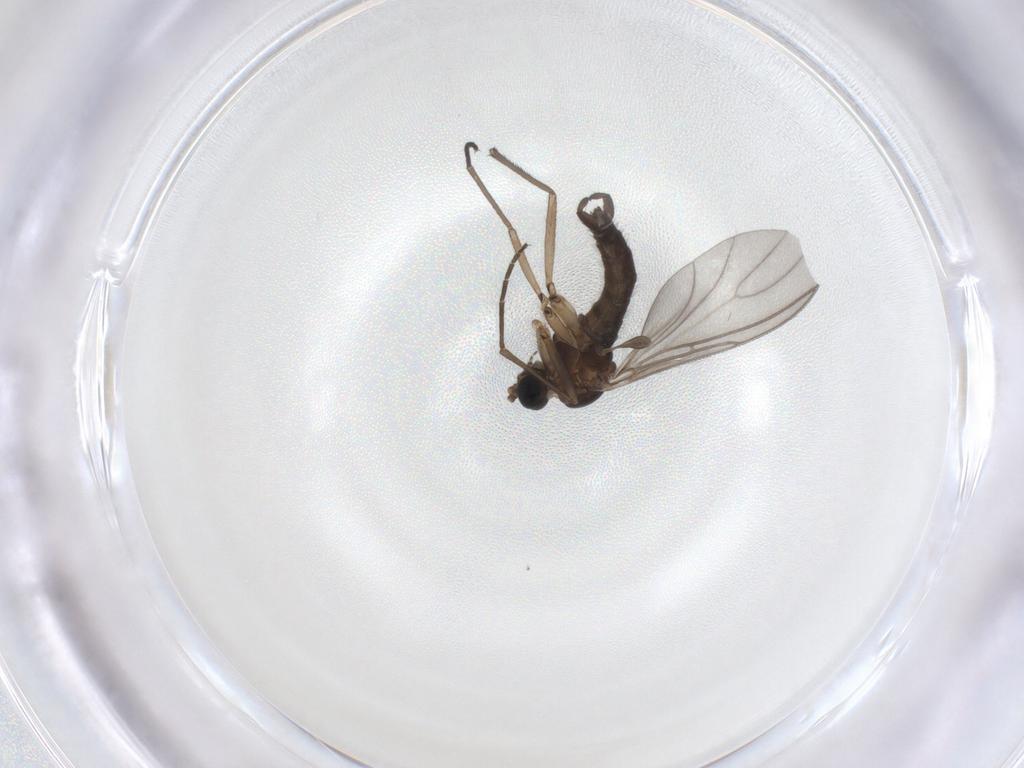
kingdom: Animalia
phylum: Arthropoda
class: Insecta
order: Diptera
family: Sciaridae
